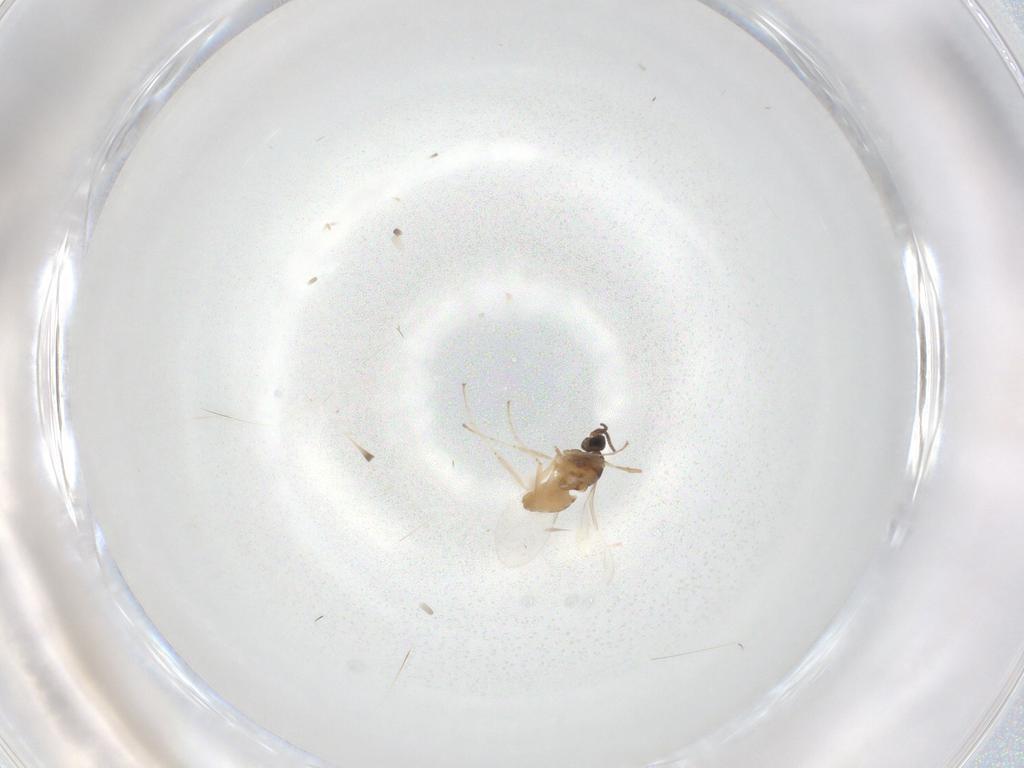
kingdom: Animalia
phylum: Arthropoda
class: Insecta
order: Diptera
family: Cecidomyiidae
